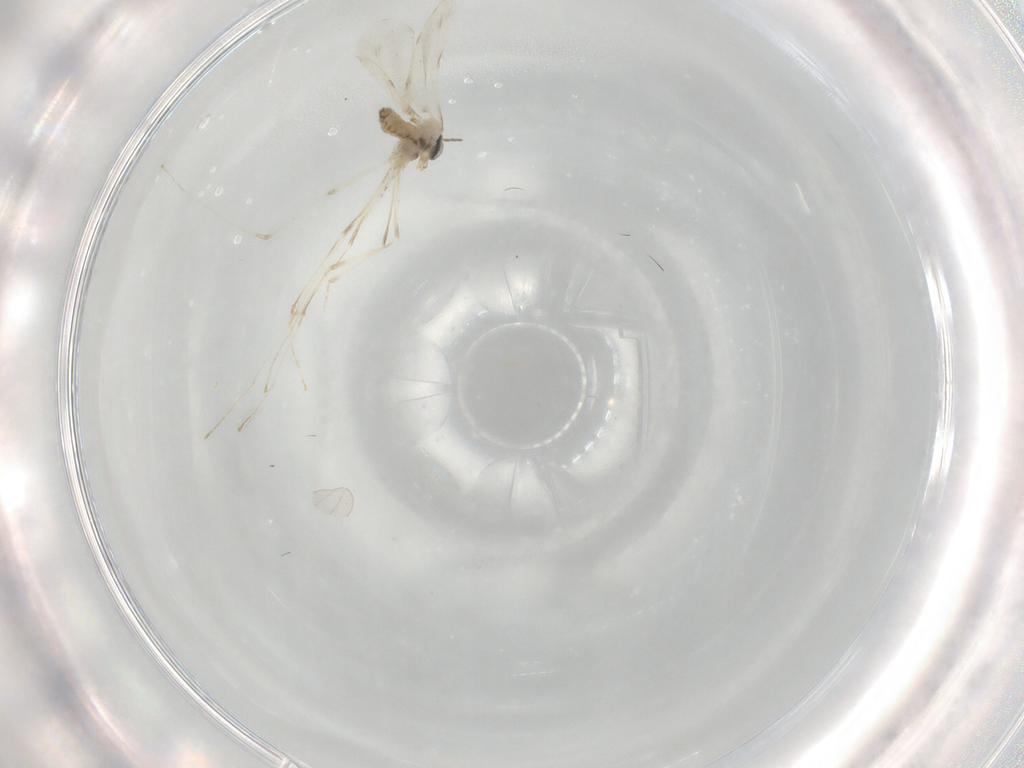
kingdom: Animalia
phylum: Arthropoda
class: Insecta
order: Diptera
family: Cecidomyiidae
